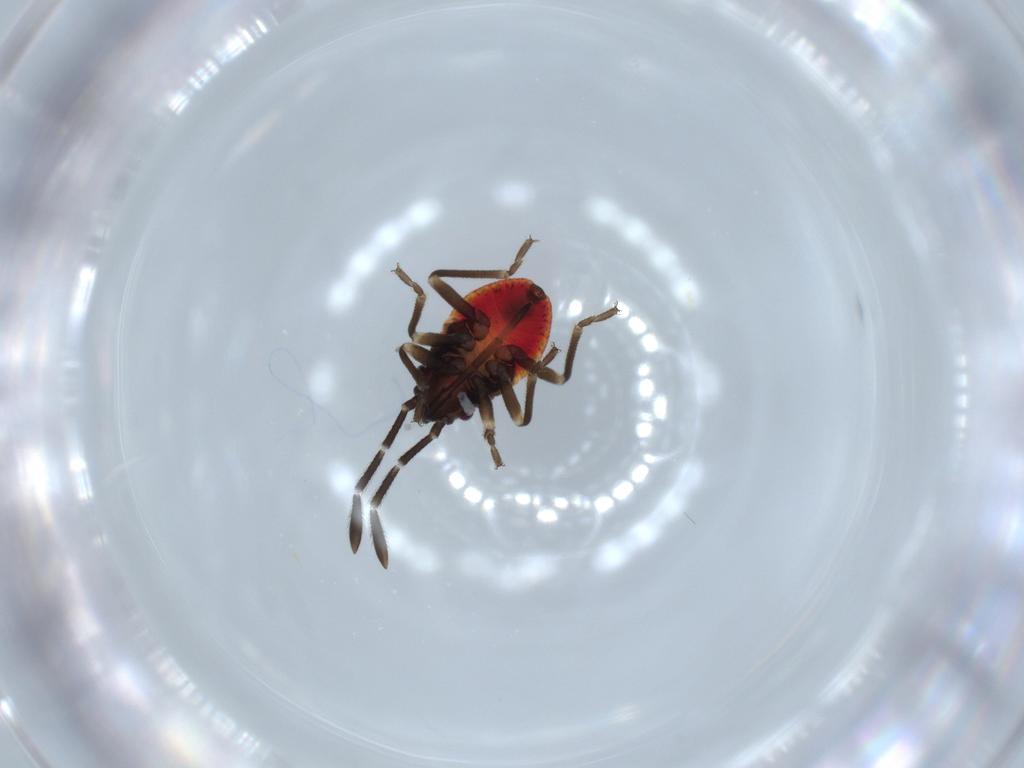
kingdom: Animalia
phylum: Arthropoda
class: Insecta
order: Hemiptera
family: Lygaeidae
